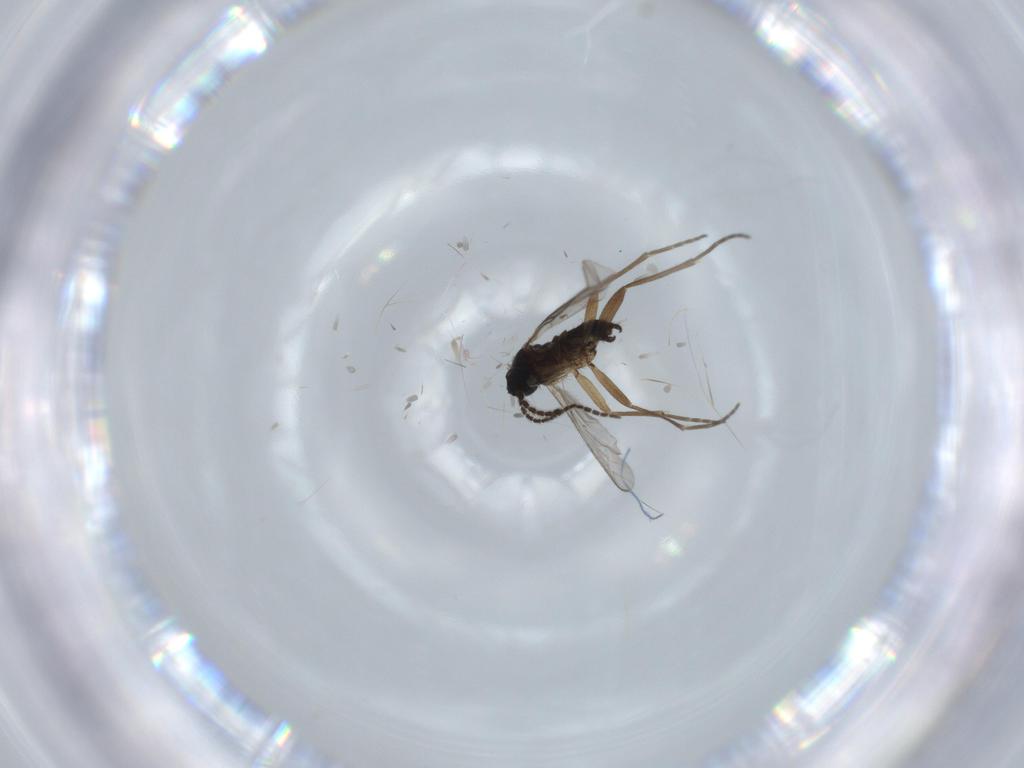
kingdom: Animalia
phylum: Arthropoda
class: Insecta
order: Diptera
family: Sciaridae
